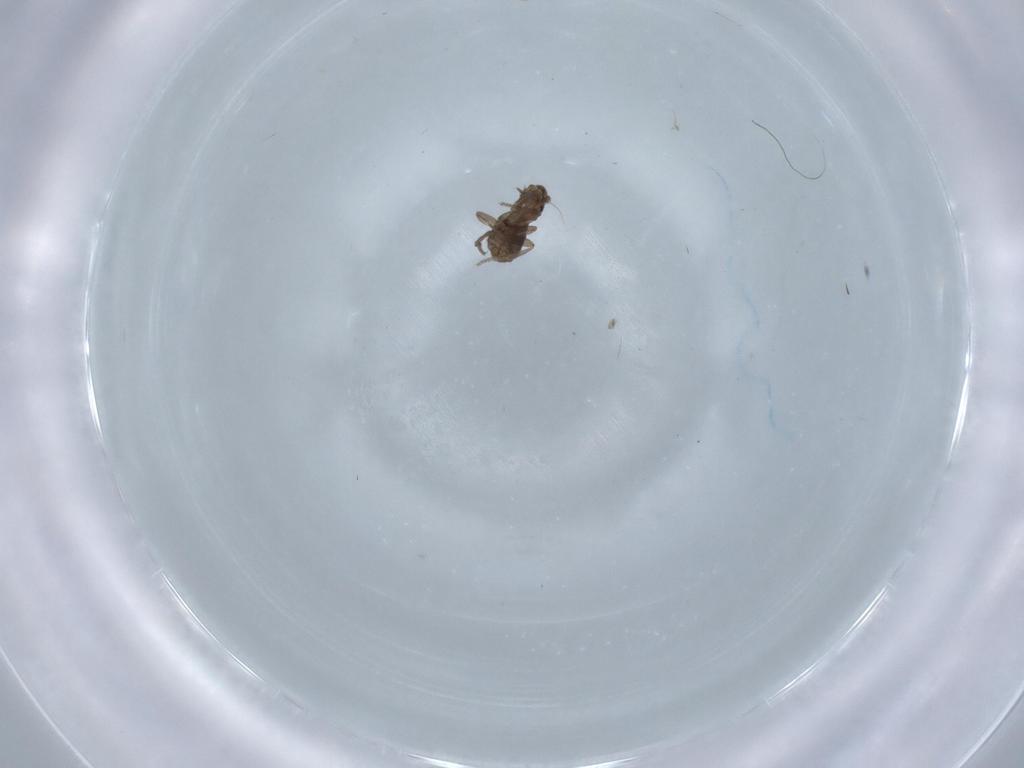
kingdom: Animalia
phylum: Arthropoda
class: Insecta
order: Diptera
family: Phoridae
